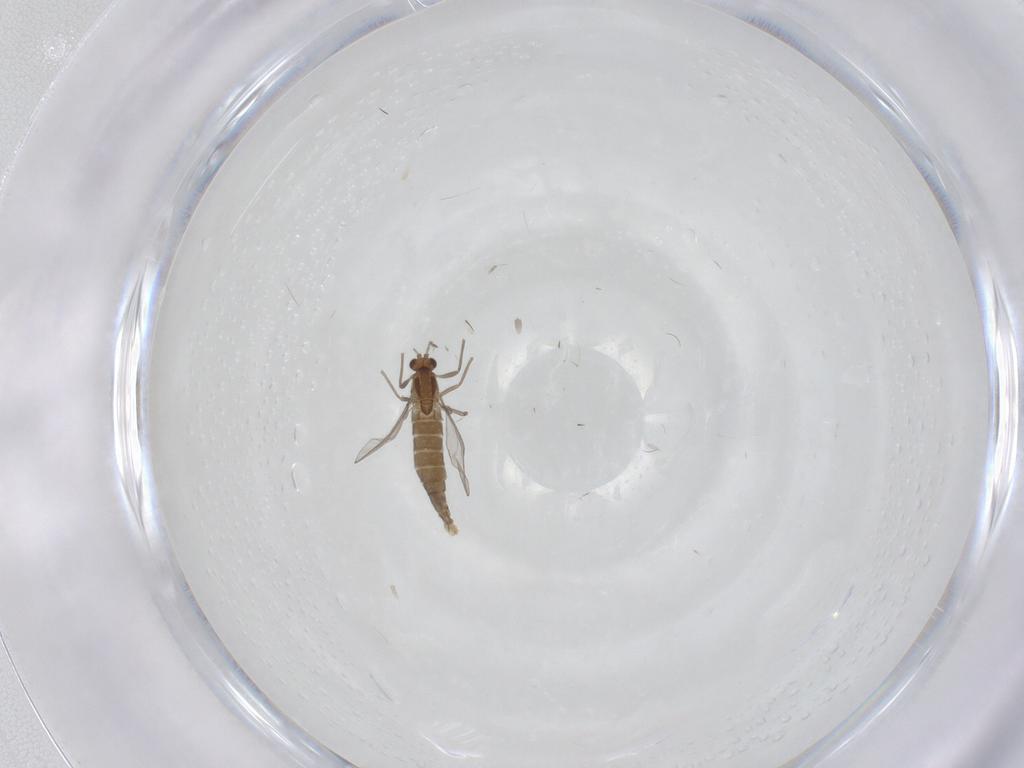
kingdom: Animalia
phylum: Arthropoda
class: Insecta
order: Diptera
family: Chironomidae
